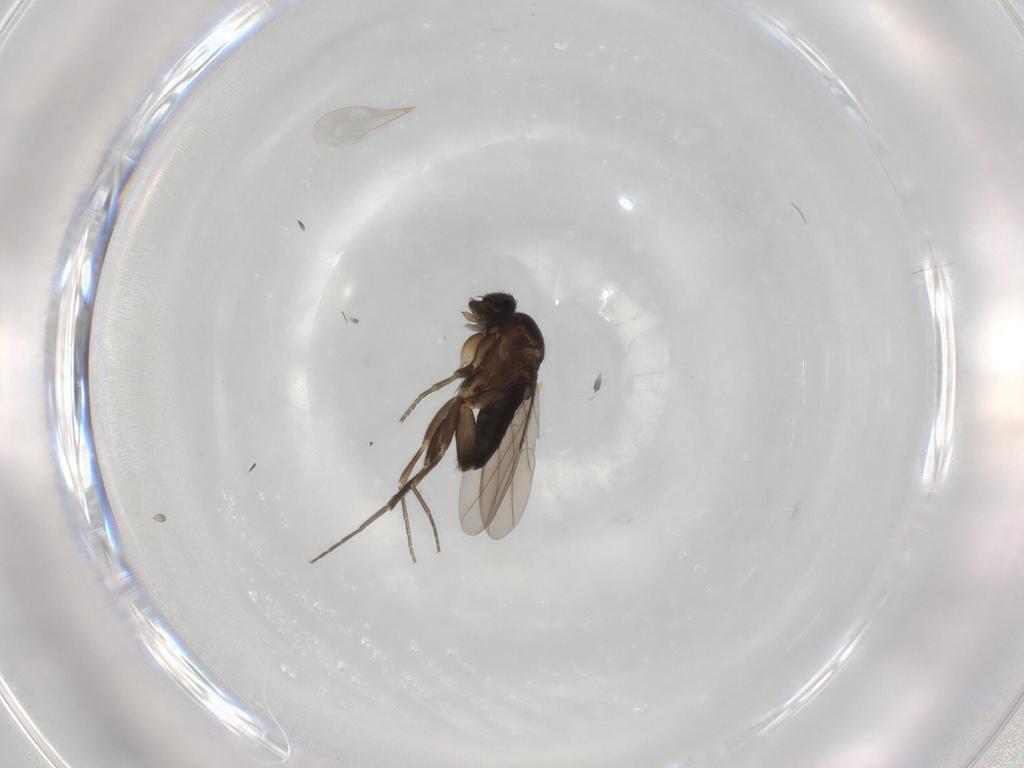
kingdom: Animalia
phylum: Arthropoda
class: Insecta
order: Diptera
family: Phoridae
